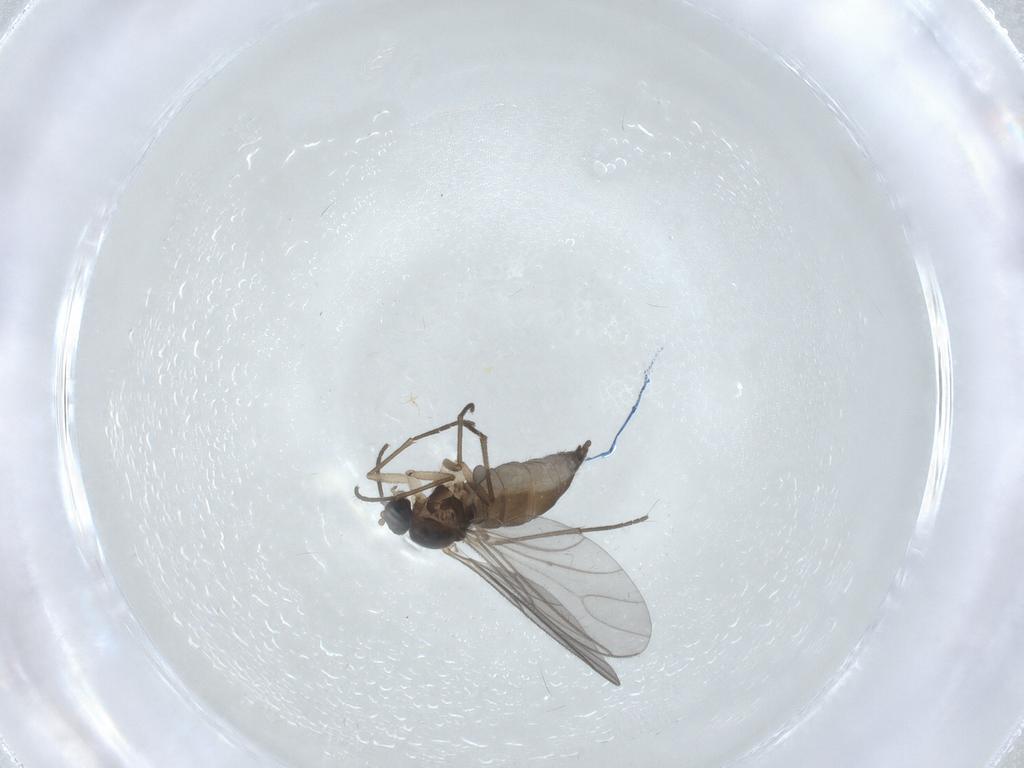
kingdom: Animalia
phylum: Arthropoda
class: Insecta
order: Diptera
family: Sciaridae
